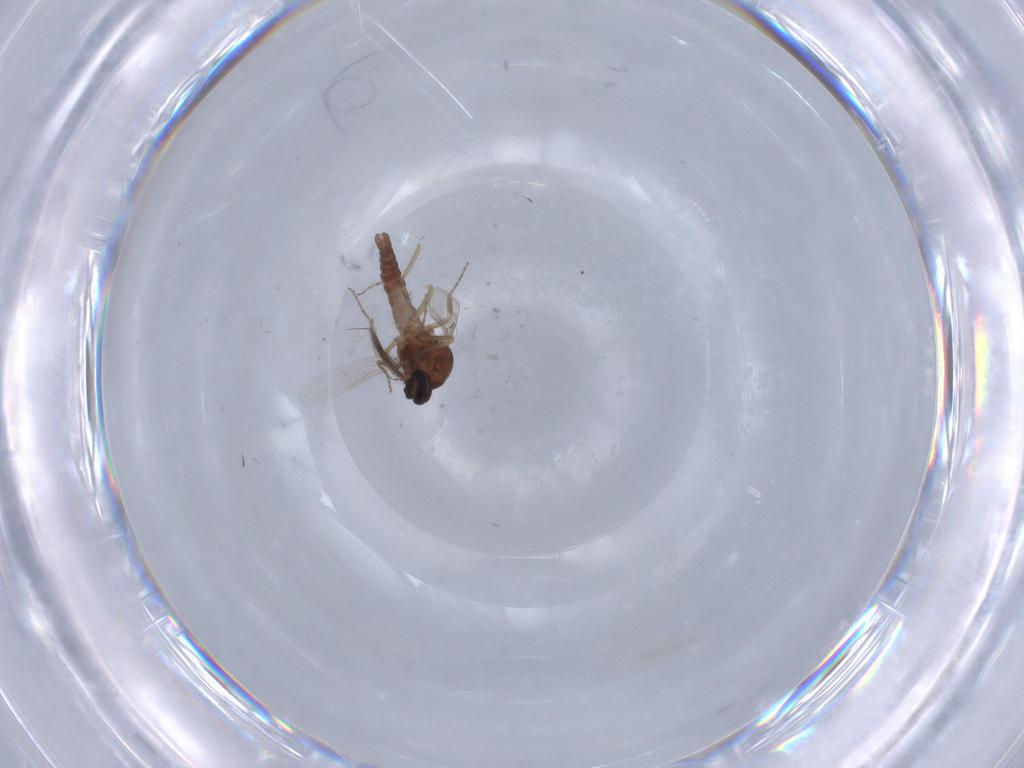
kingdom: Animalia
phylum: Arthropoda
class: Insecta
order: Diptera
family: Ceratopogonidae
